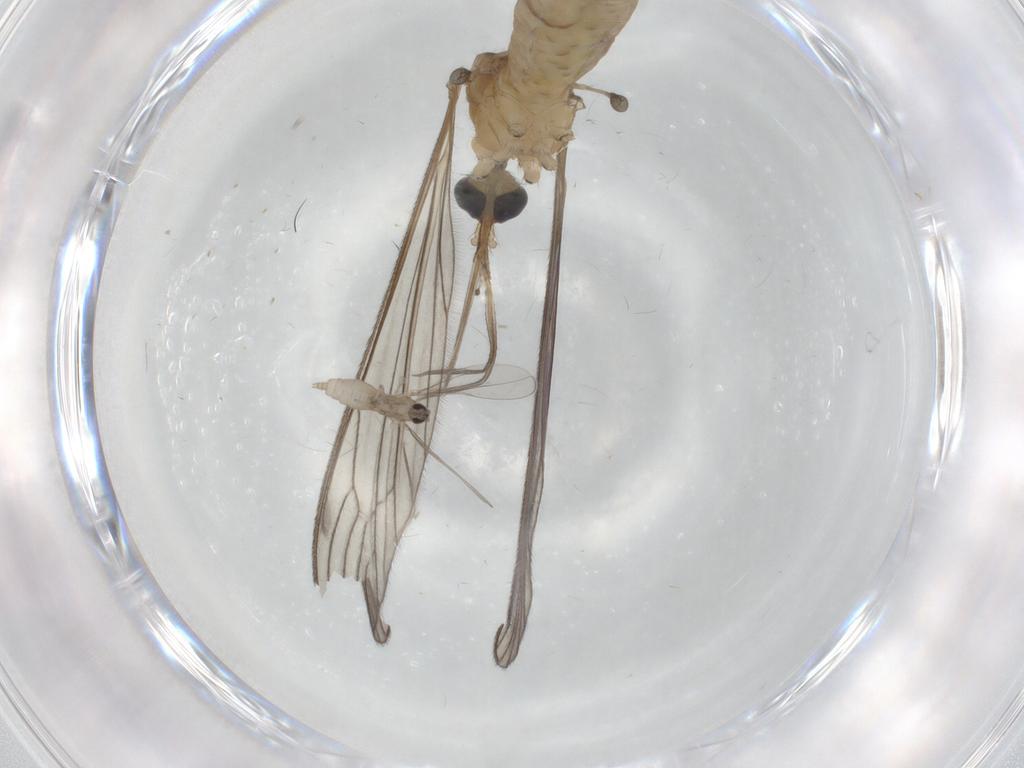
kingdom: Animalia
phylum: Arthropoda
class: Insecta
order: Diptera
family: Limoniidae
